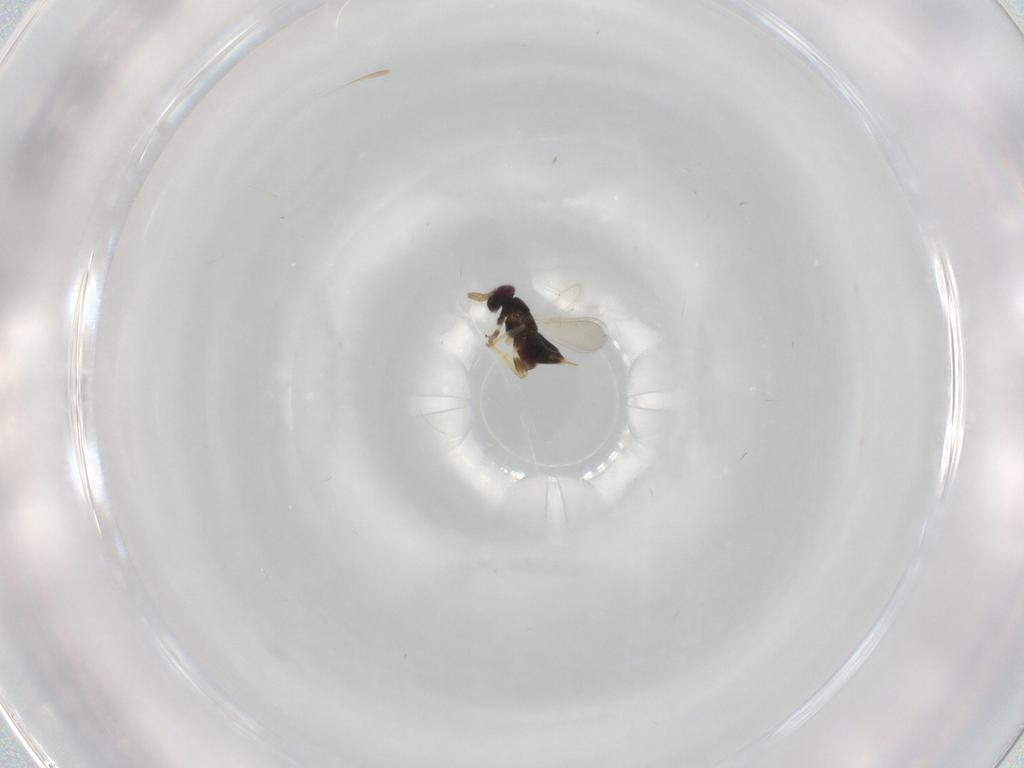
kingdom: Animalia
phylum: Arthropoda
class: Insecta
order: Hymenoptera
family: Aphelinidae
